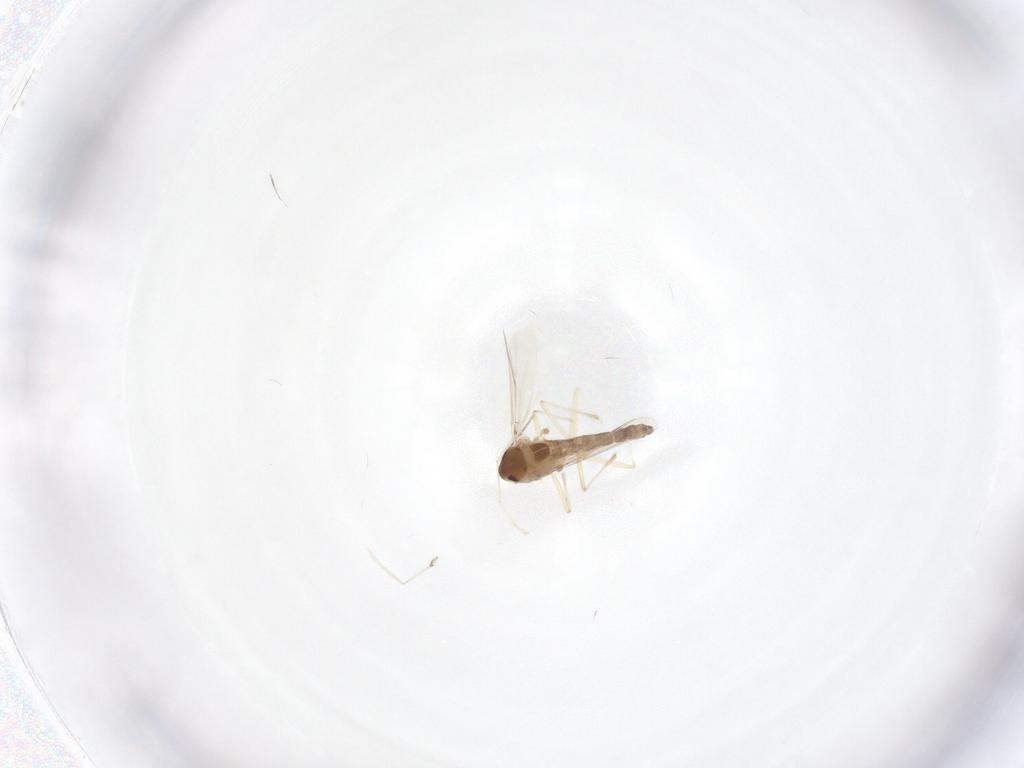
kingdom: Animalia
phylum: Arthropoda
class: Insecta
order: Diptera
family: Chironomidae
